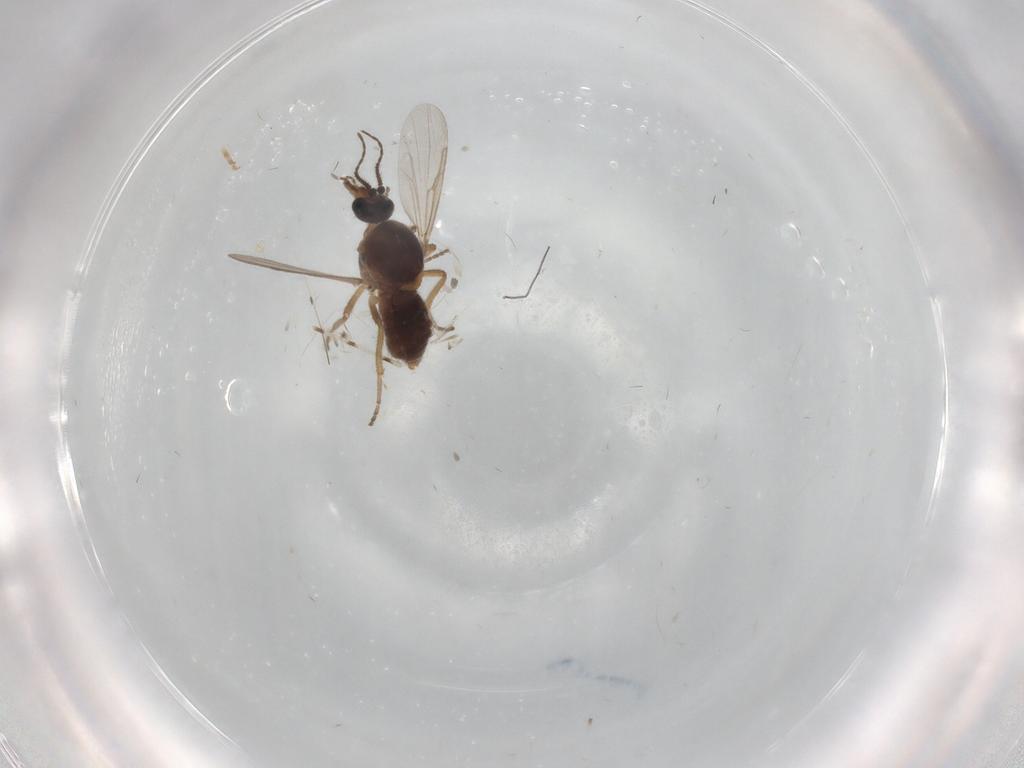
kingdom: Animalia
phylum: Arthropoda
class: Insecta
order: Diptera
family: Ceratopogonidae
